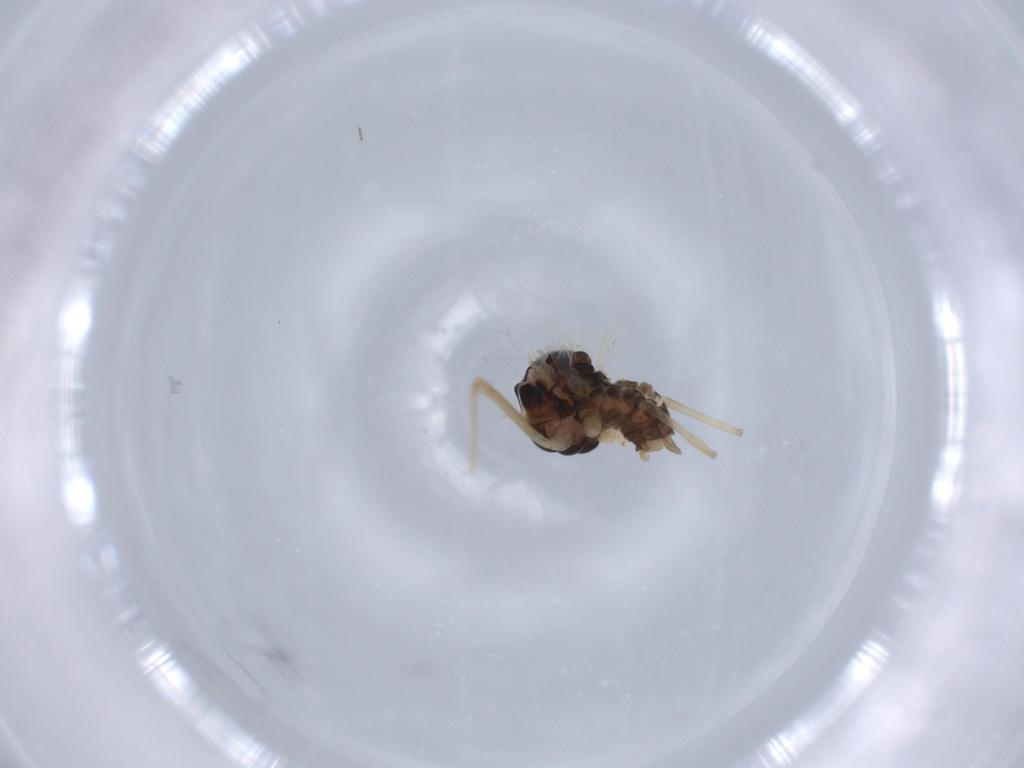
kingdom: Animalia
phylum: Arthropoda
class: Insecta
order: Hemiptera
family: Aphididae
